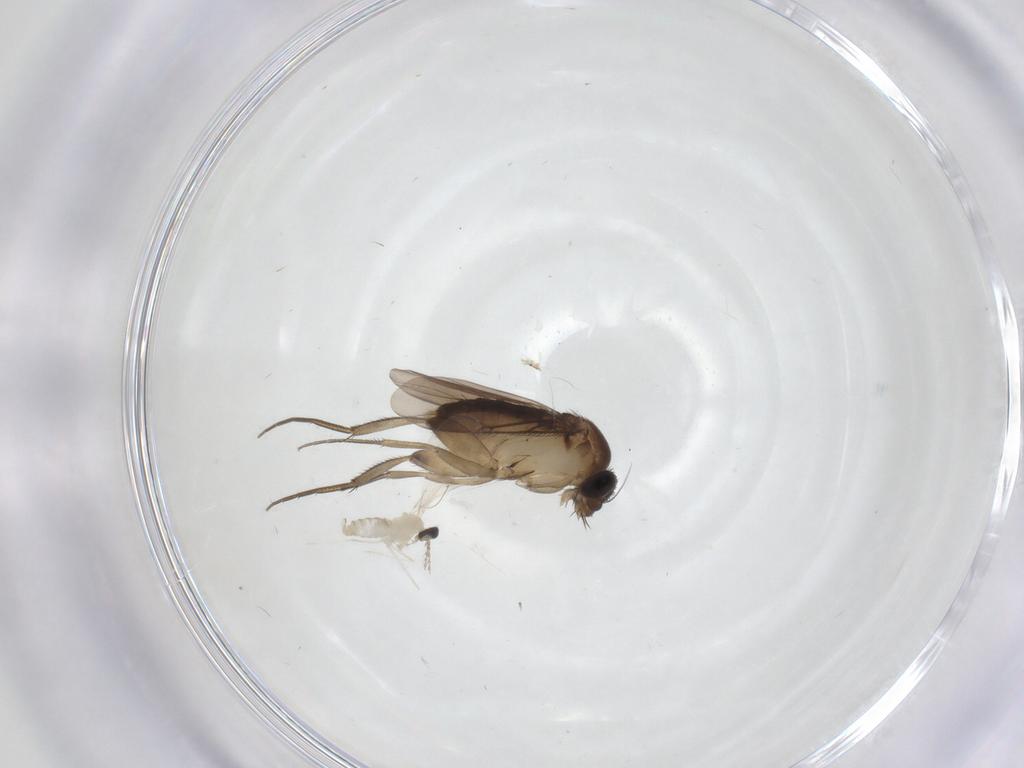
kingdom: Animalia
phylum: Arthropoda
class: Insecta
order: Diptera
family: Phoridae
